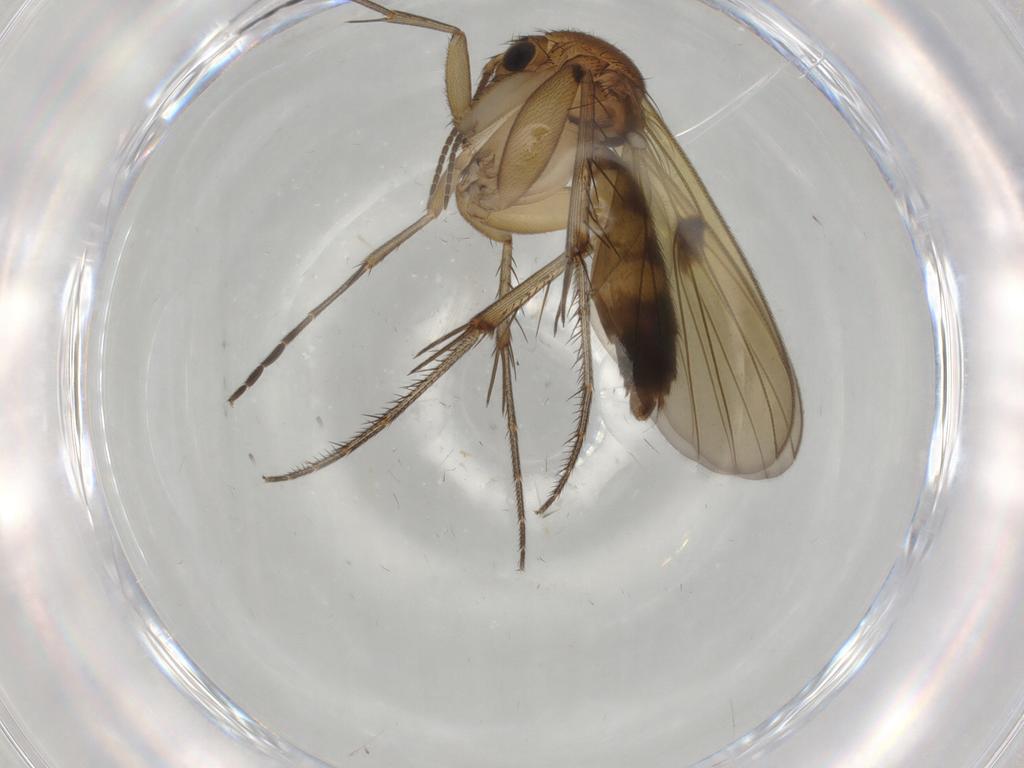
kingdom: Animalia
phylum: Arthropoda
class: Insecta
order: Diptera
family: Mycetophilidae
